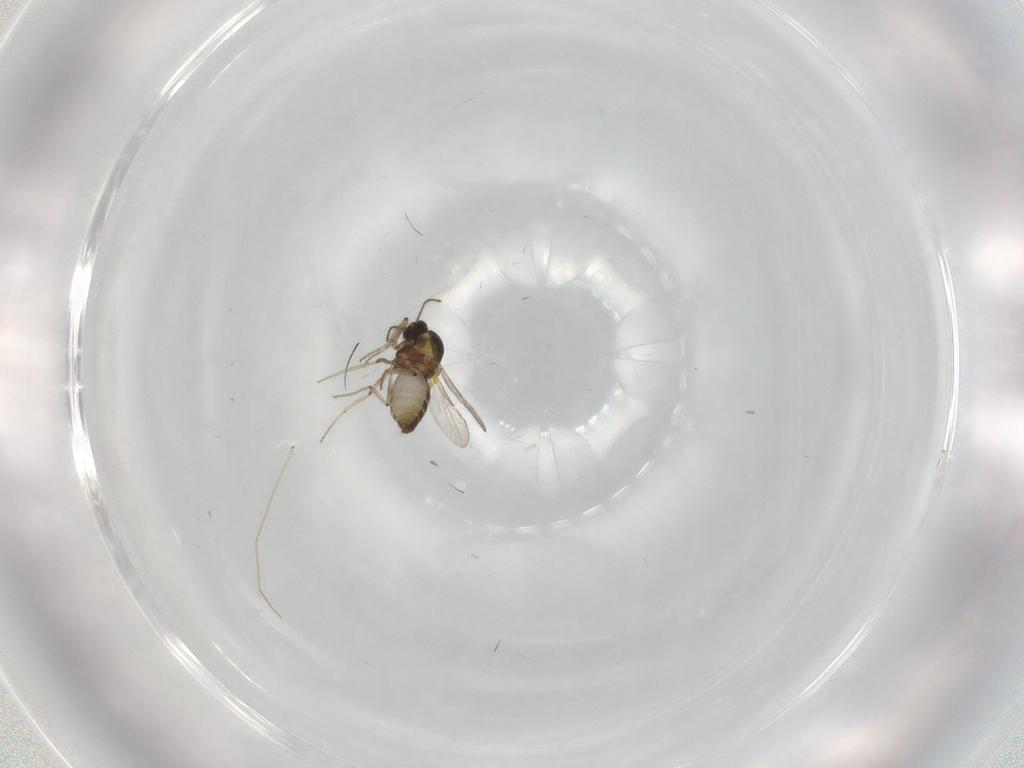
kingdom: Animalia
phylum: Arthropoda
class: Insecta
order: Diptera
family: Ceratopogonidae
